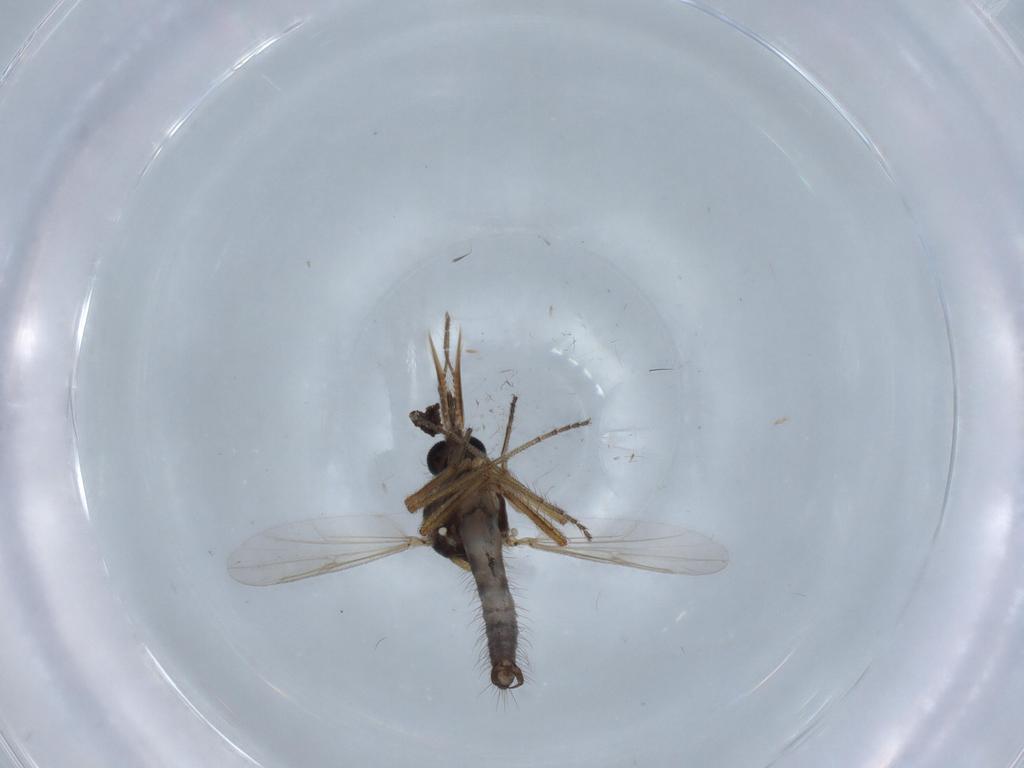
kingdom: Animalia
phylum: Arthropoda
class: Insecta
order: Diptera
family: Ceratopogonidae
